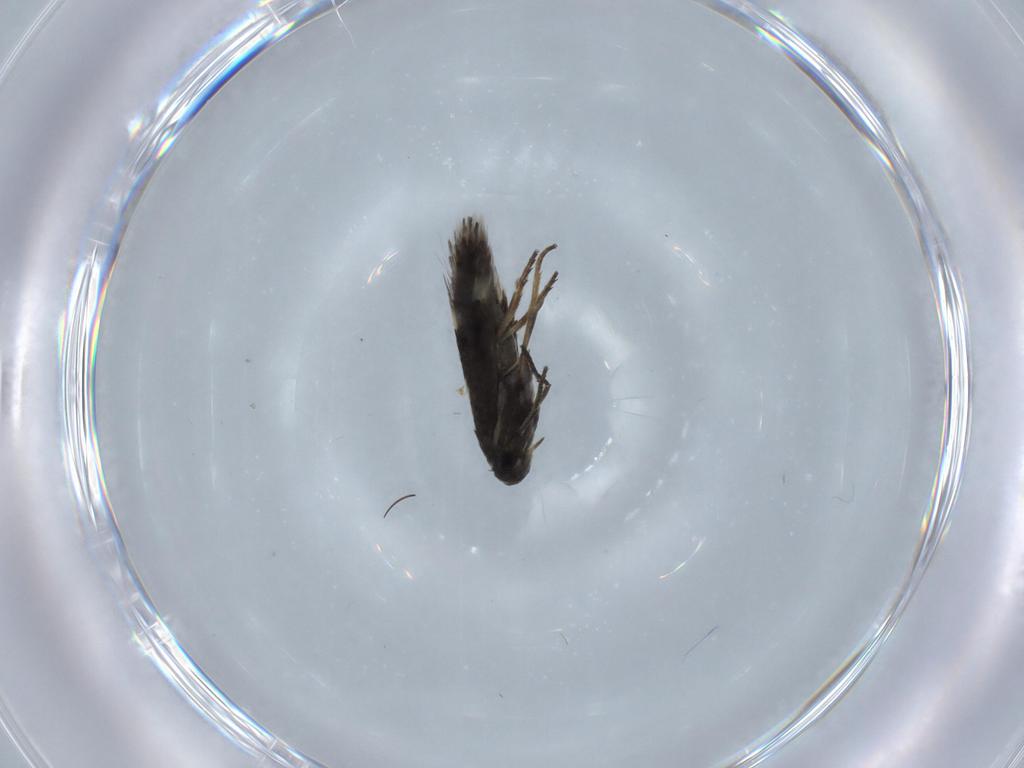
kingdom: Animalia
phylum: Arthropoda
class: Insecta
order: Lepidoptera
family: Heliozelidae
